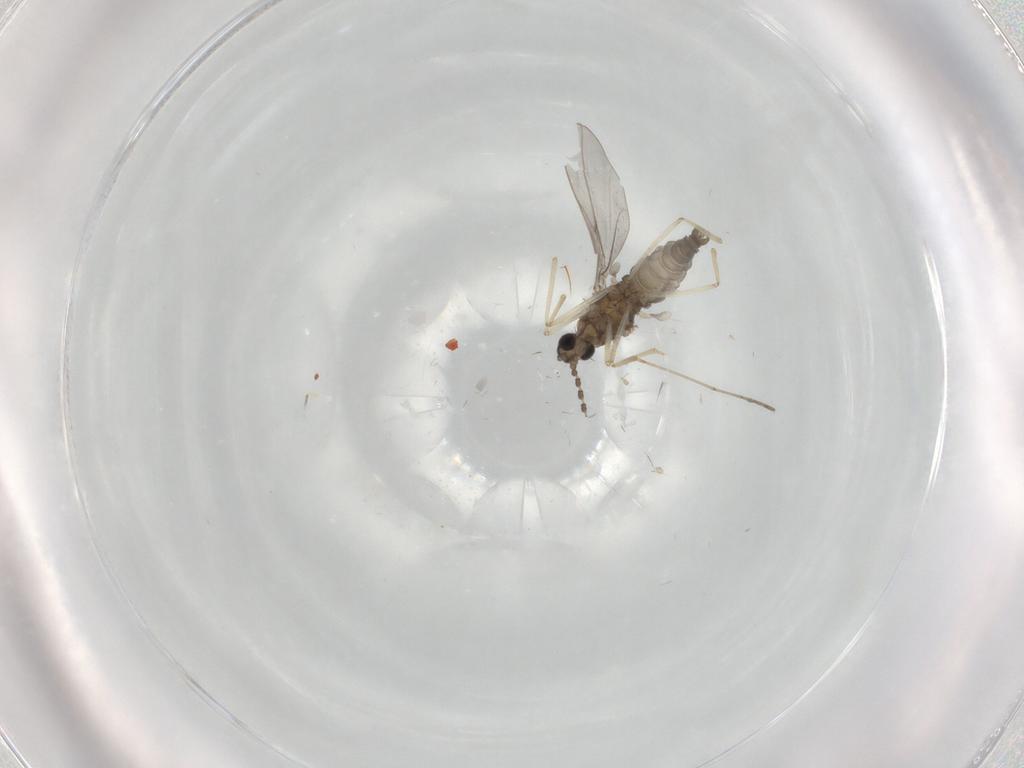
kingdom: Animalia
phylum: Arthropoda
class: Insecta
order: Diptera
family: Cecidomyiidae
